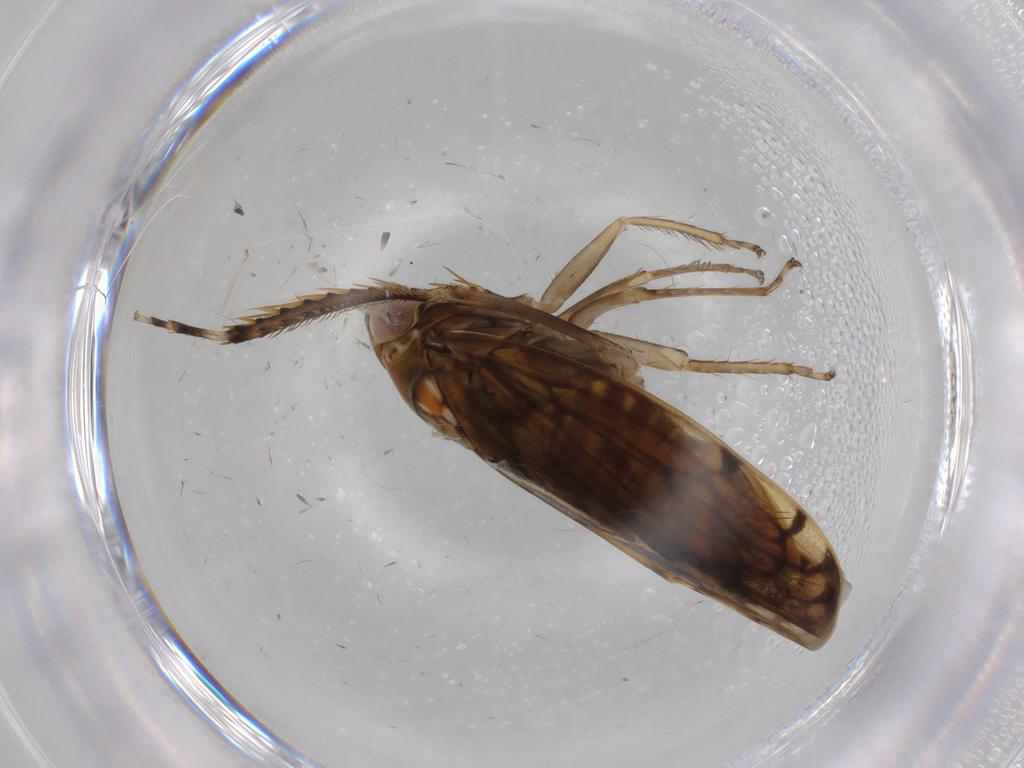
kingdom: Animalia
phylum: Arthropoda
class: Insecta
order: Hemiptera
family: Cicadellidae
